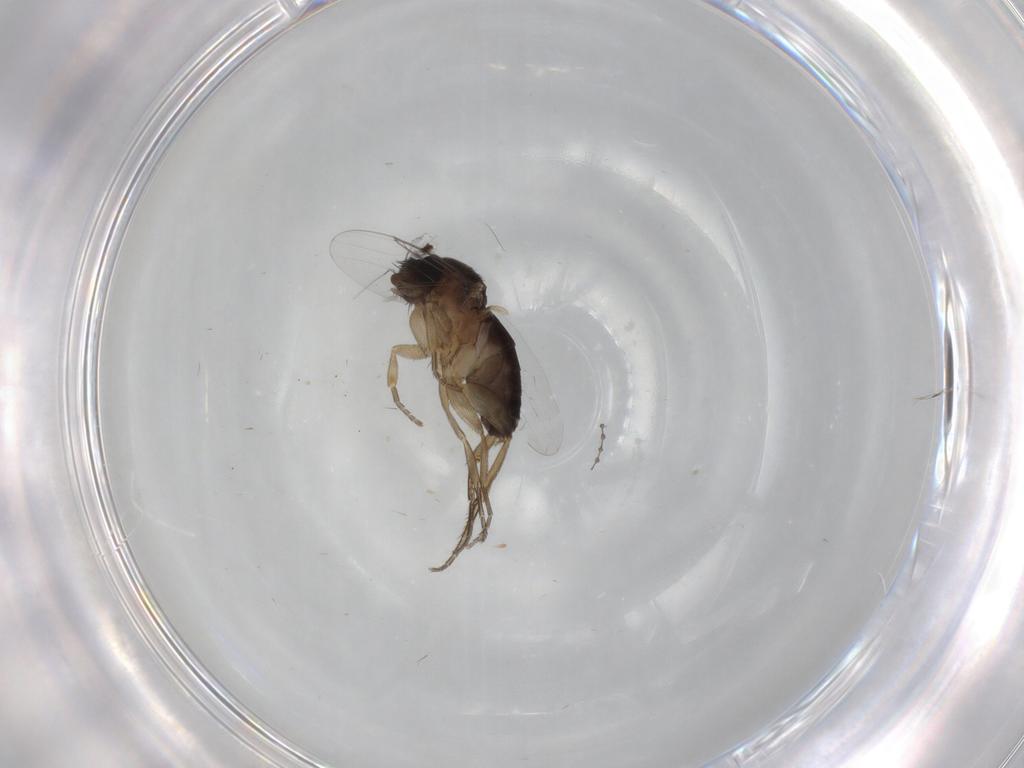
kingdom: Animalia
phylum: Arthropoda
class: Insecta
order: Diptera
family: Phoridae
